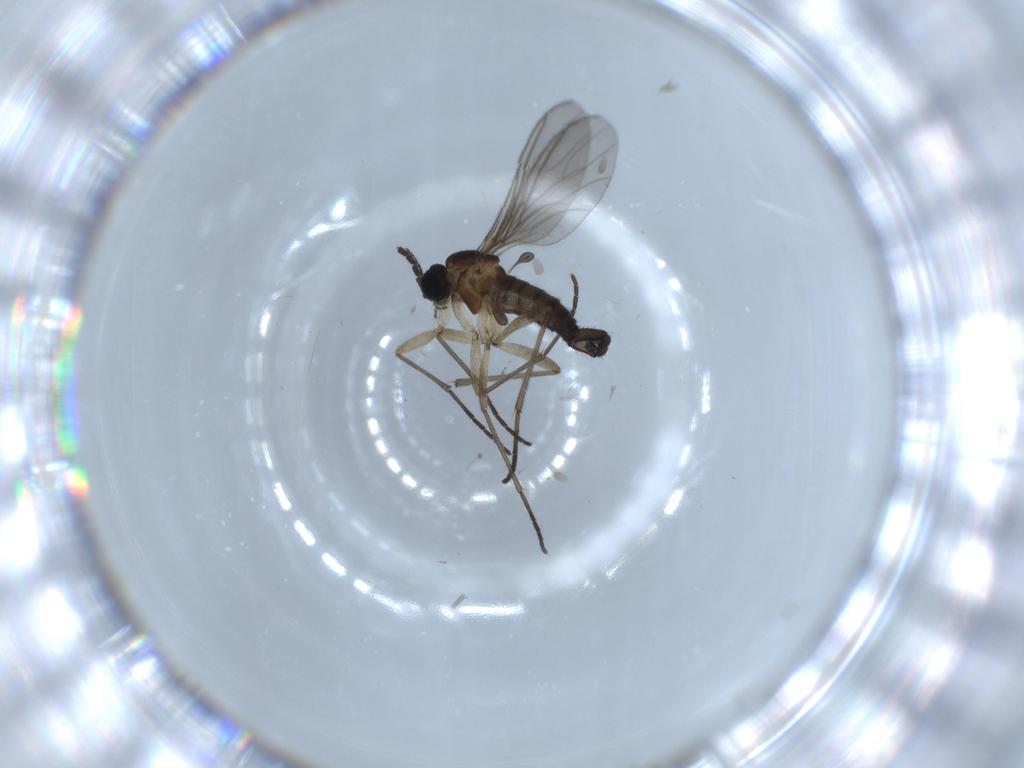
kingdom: Animalia
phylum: Arthropoda
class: Insecta
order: Diptera
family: Sciaridae
